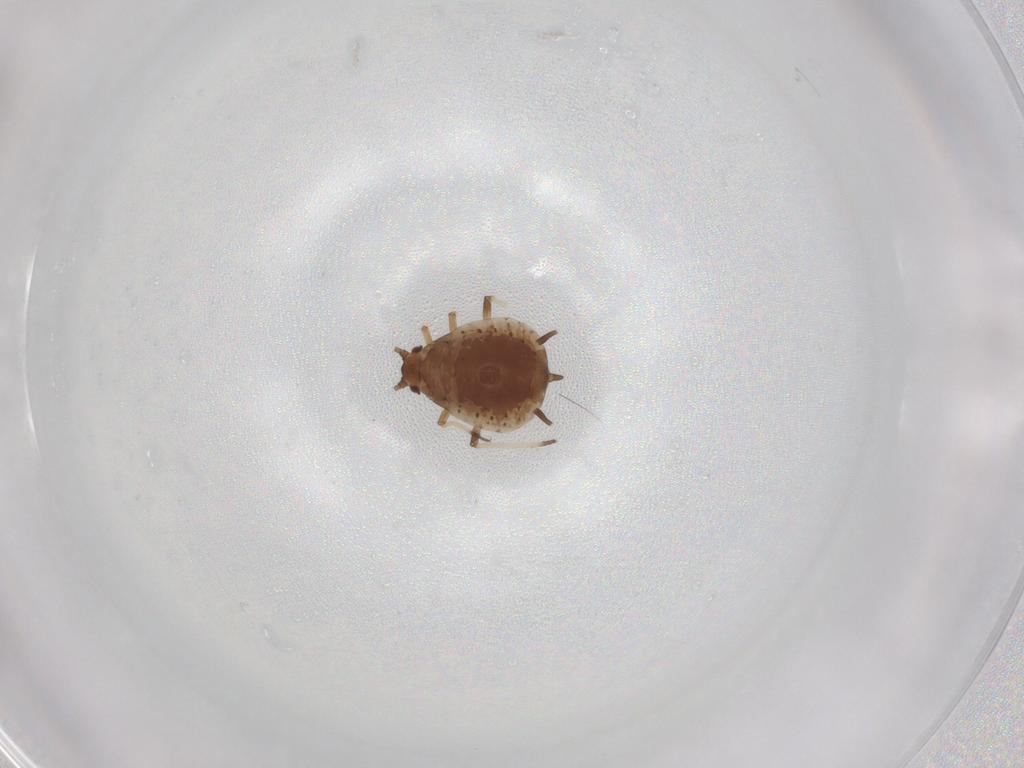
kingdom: Animalia
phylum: Arthropoda
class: Insecta
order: Hemiptera
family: Aphididae
